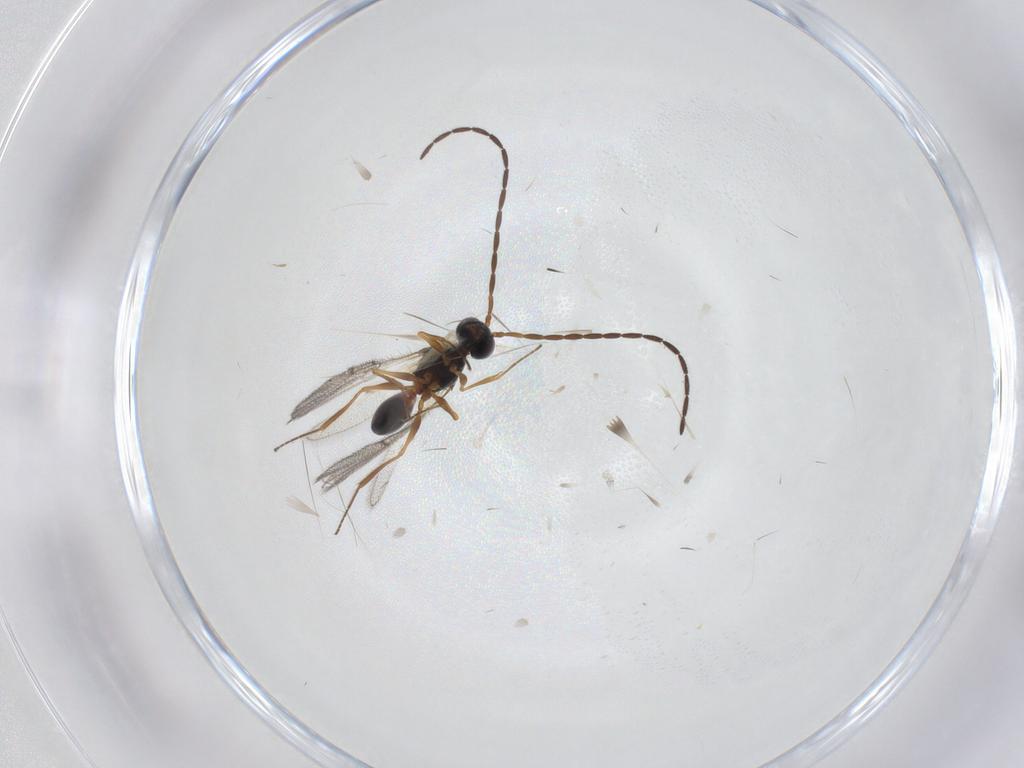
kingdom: Animalia
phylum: Arthropoda
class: Insecta
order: Hymenoptera
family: Figitidae
